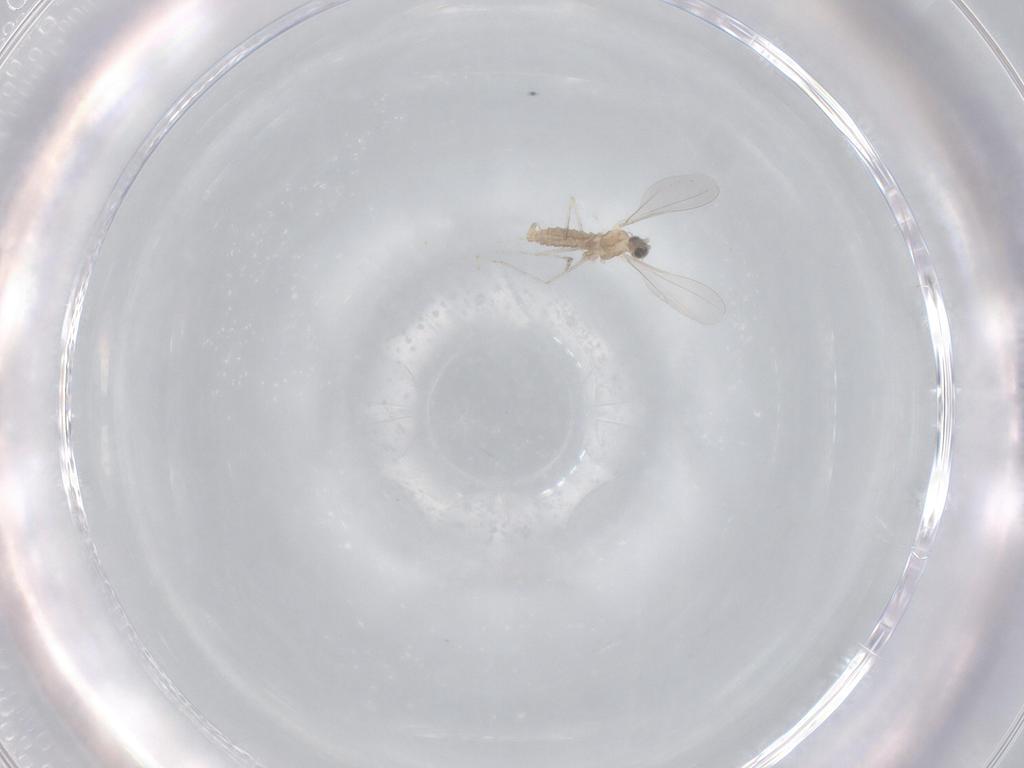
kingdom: Animalia
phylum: Arthropoda
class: Insecta
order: Diptera
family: Cecidomyiidae
